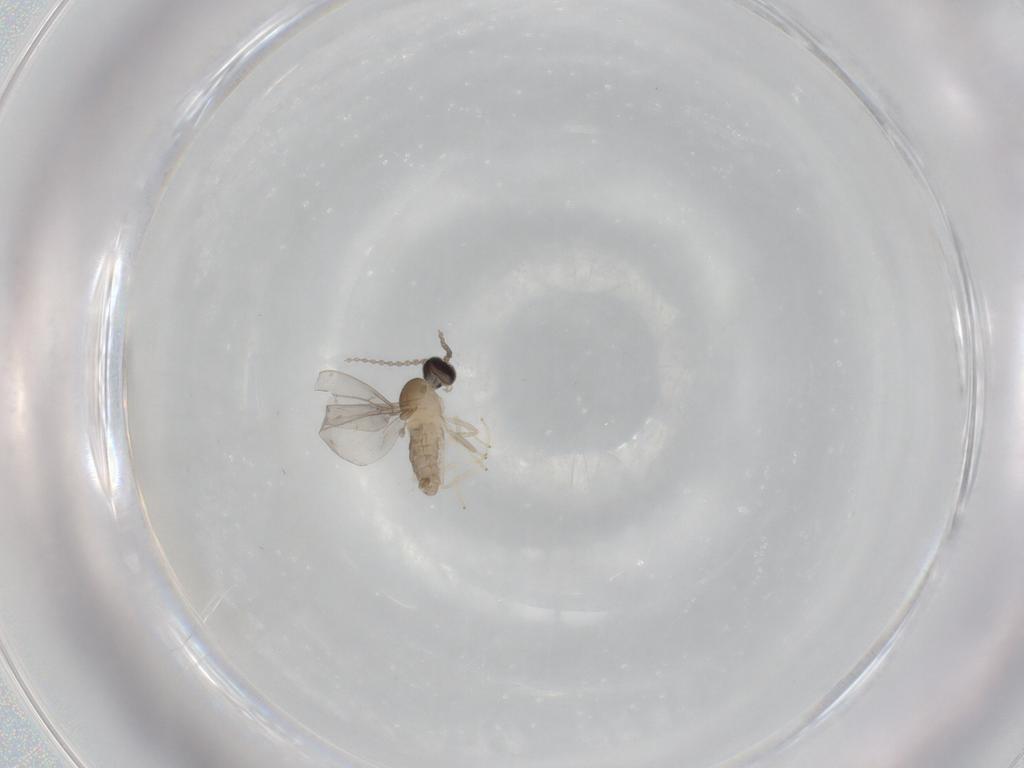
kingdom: Animalia
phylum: Arthropoda
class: Insecta
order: Diptera
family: Cecidomyiidae
